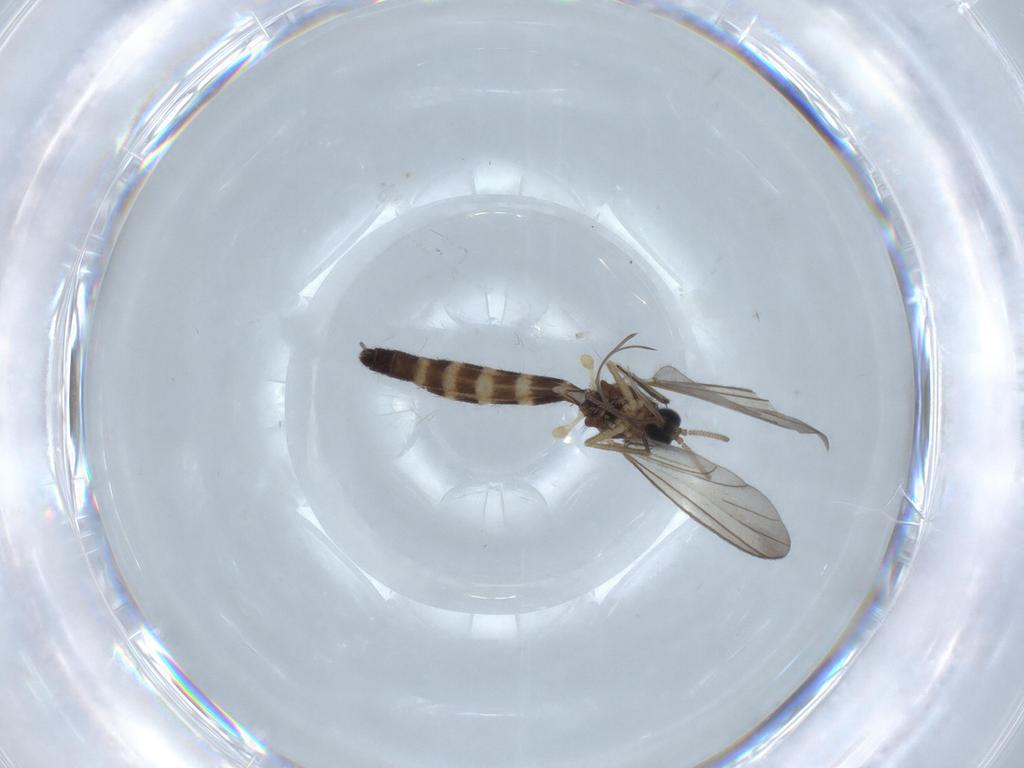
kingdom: Animalia
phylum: Arthropoda
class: Insecta
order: Diptera
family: Keroplatidae
